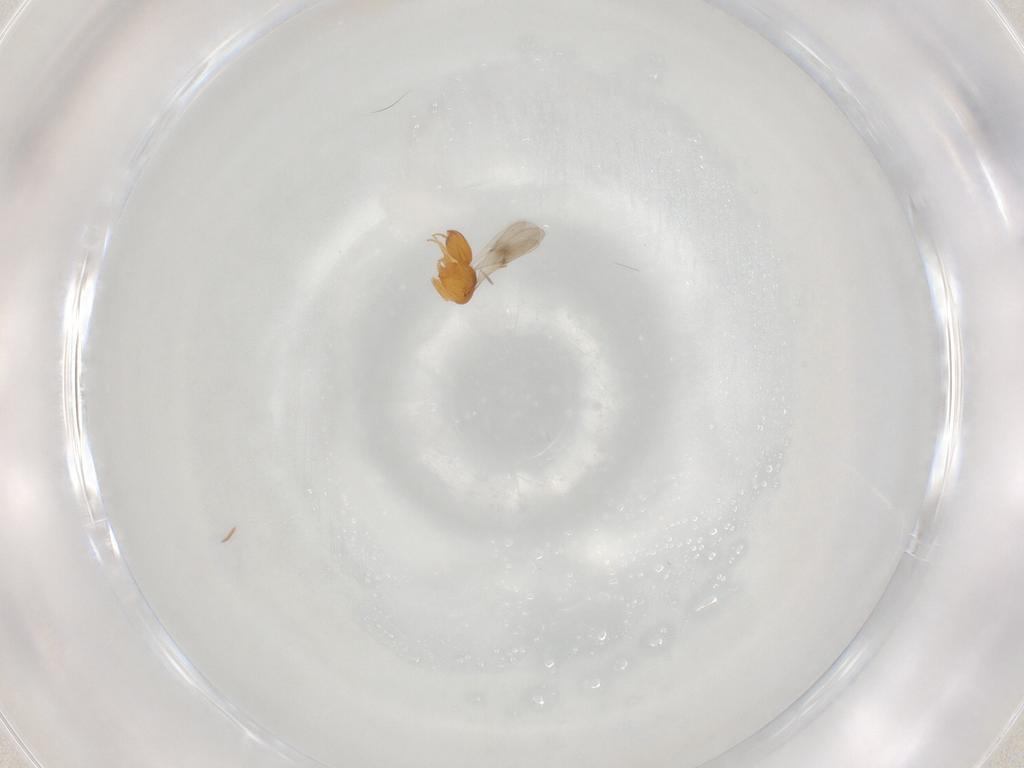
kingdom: Animalia
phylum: Arthropoda
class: Insecta
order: Hymenoptera
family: Scelionidae
